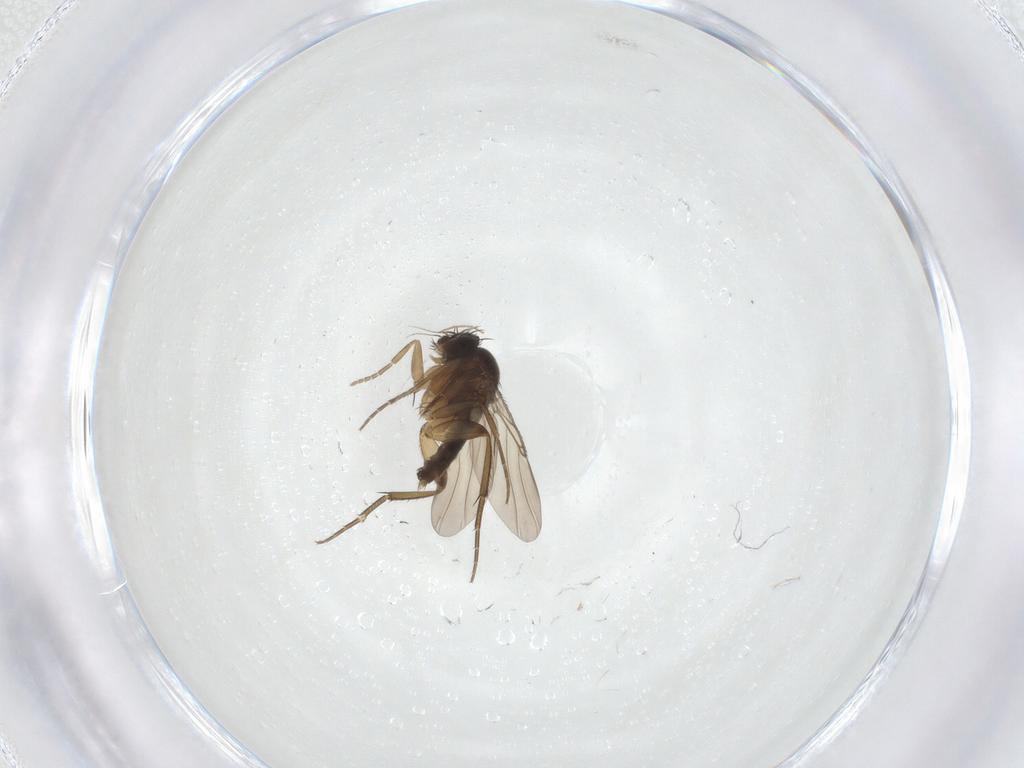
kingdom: Animalia
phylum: Arthropoda
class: Insecta
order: Diptera
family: Phoridae
